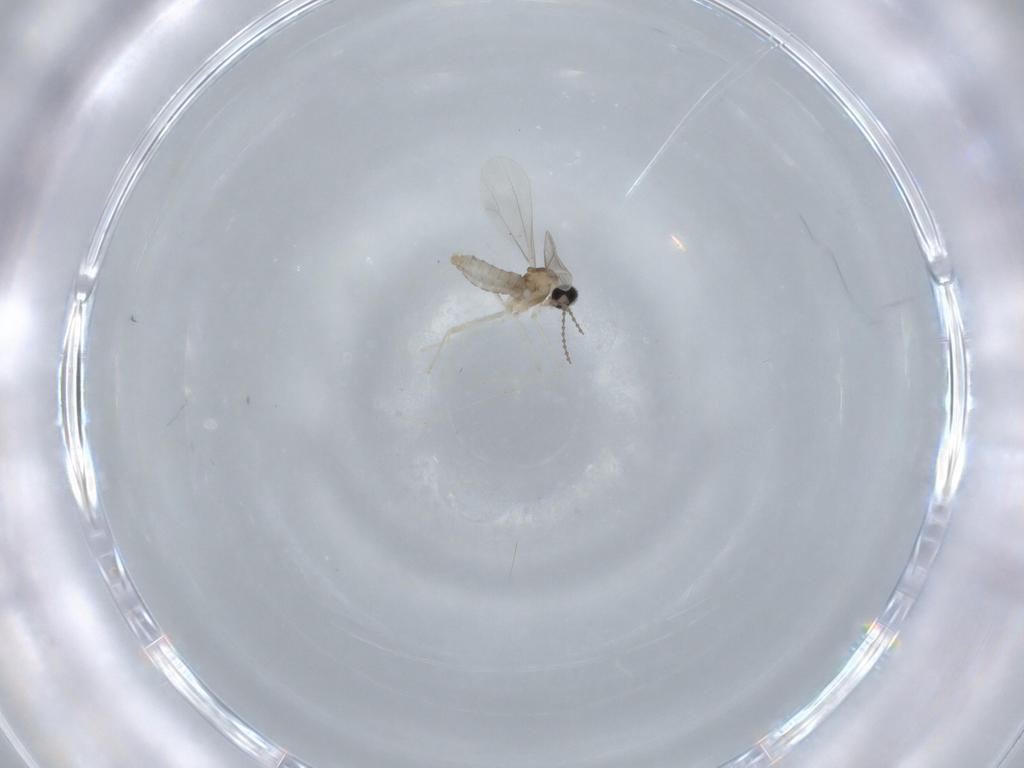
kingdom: Animalia
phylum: Arthropoda
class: Insecta
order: Diptera
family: Cecidomyiidae
